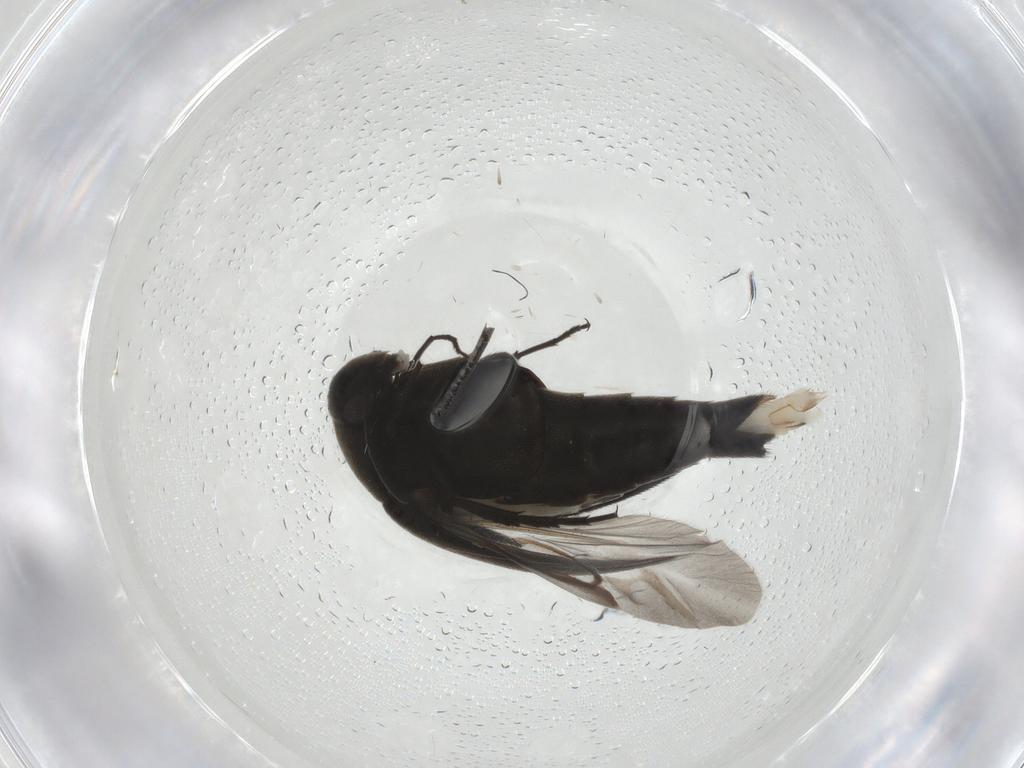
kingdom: Animalia
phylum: Arthropoda
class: Insecta
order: Coleoptera
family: Mordellidae
